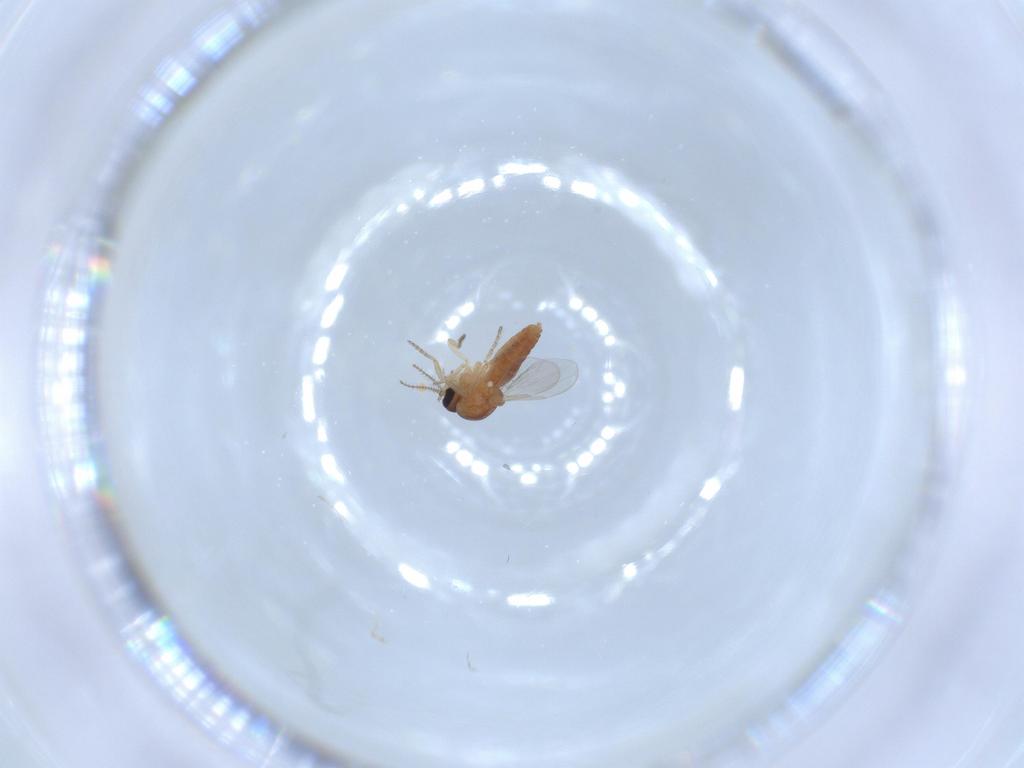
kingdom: Animalia
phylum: Arthropoda
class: Insecta
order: Diptera
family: Ceratopogonidae
